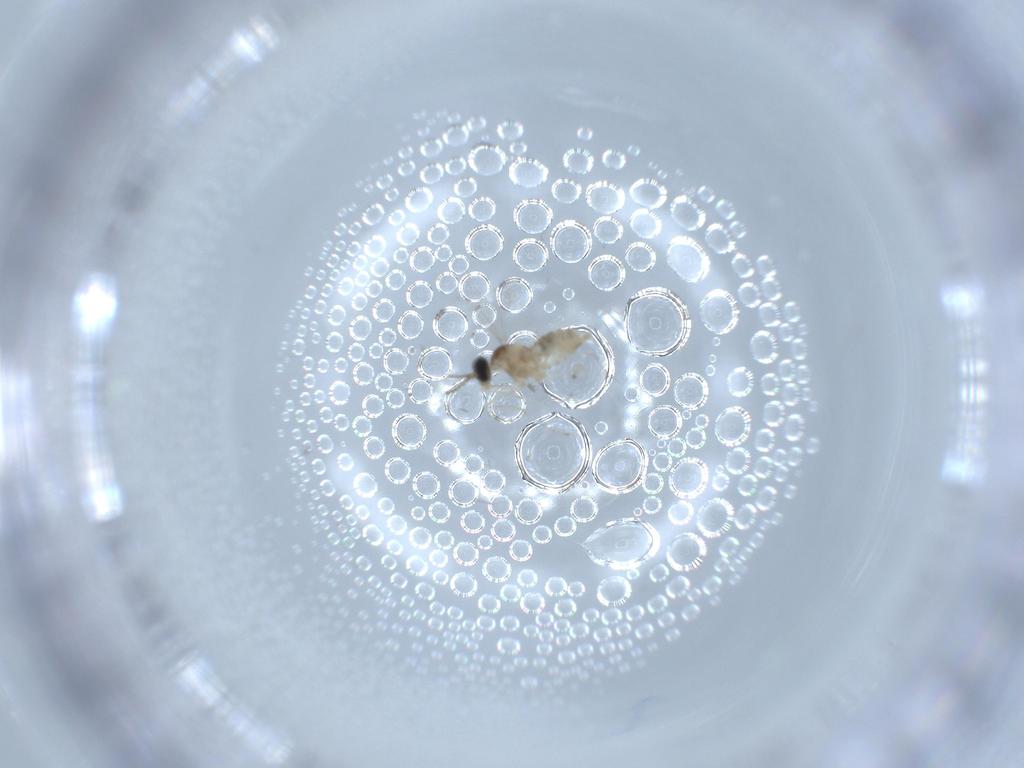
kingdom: Animalia
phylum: Arthropoda
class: Insecta
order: Diptera
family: Cecidomyiidae
